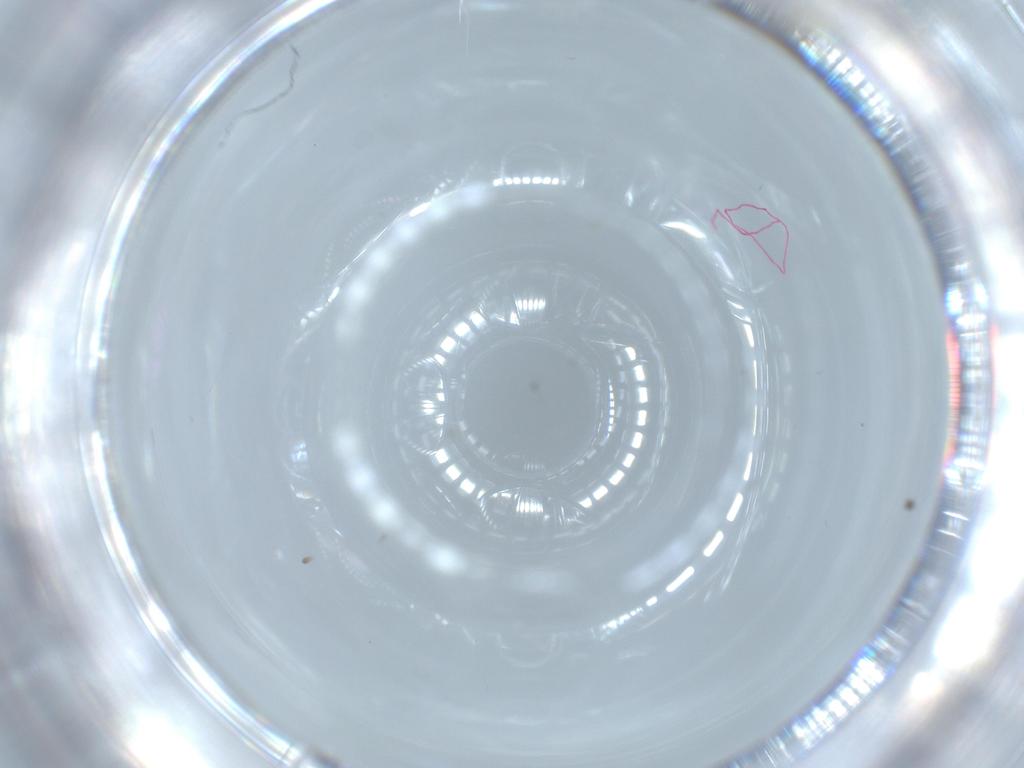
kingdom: Animalia
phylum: Arthropoda
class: Insecta
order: Diptera
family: Cecidomyiidae
